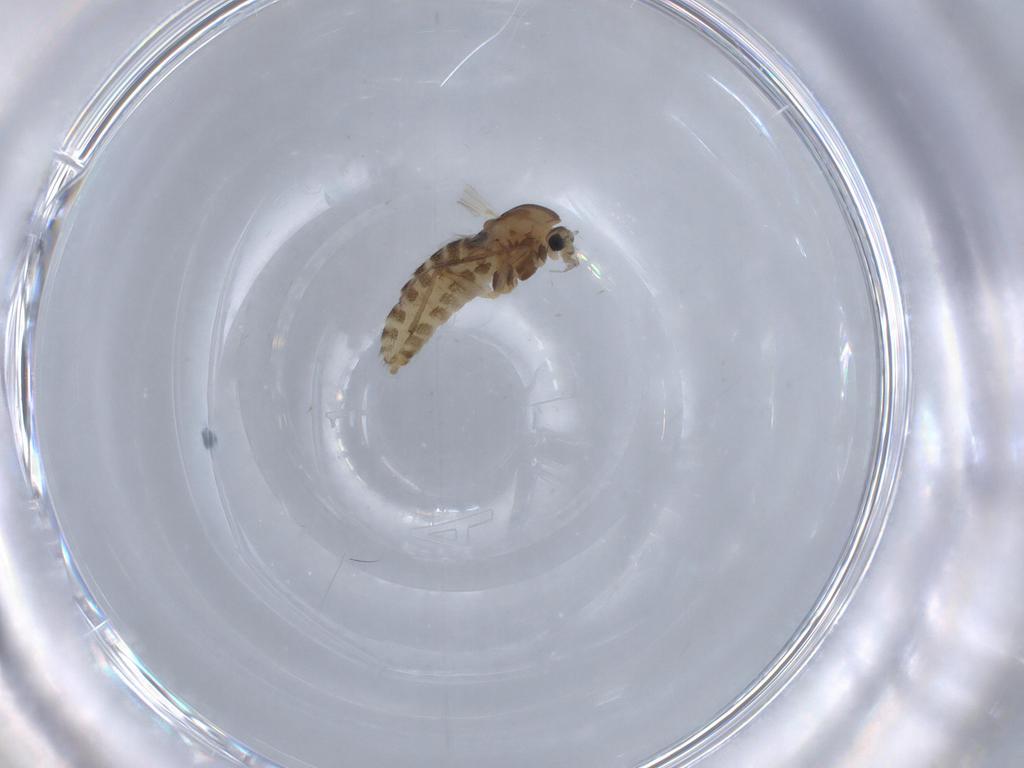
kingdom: Animalia
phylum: Arthropoda
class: Insecta
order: Diptera
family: Chironomidae
